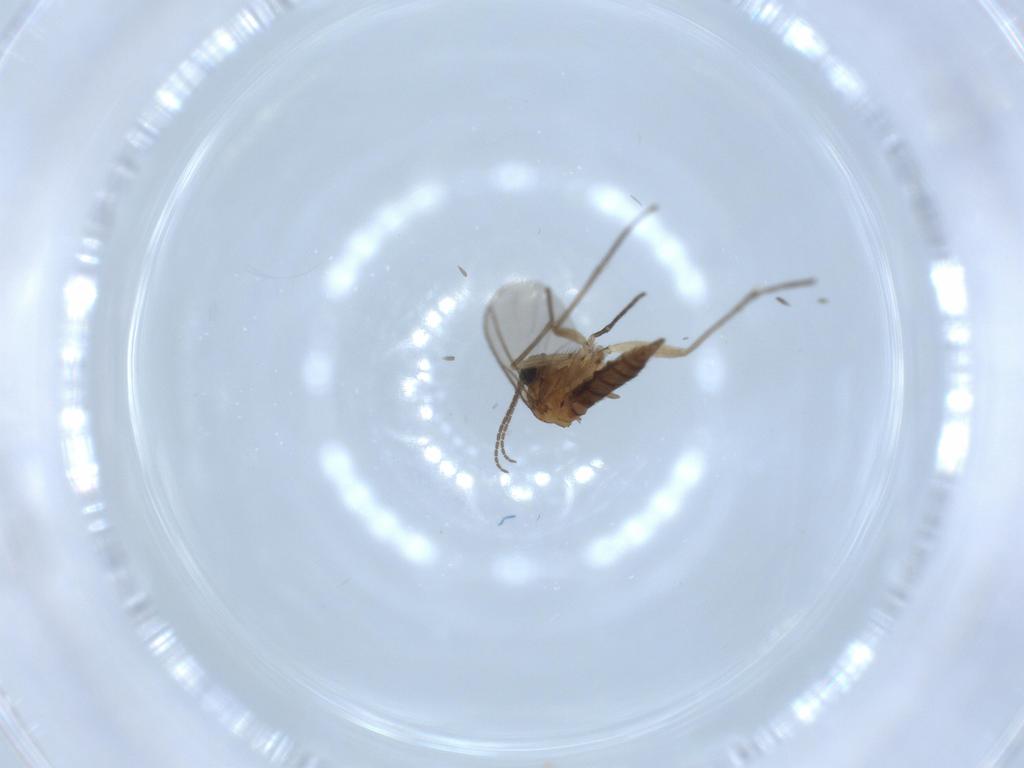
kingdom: Animalia
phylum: Arthropoda
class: Insecta
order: Diptera
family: Sciaridae
